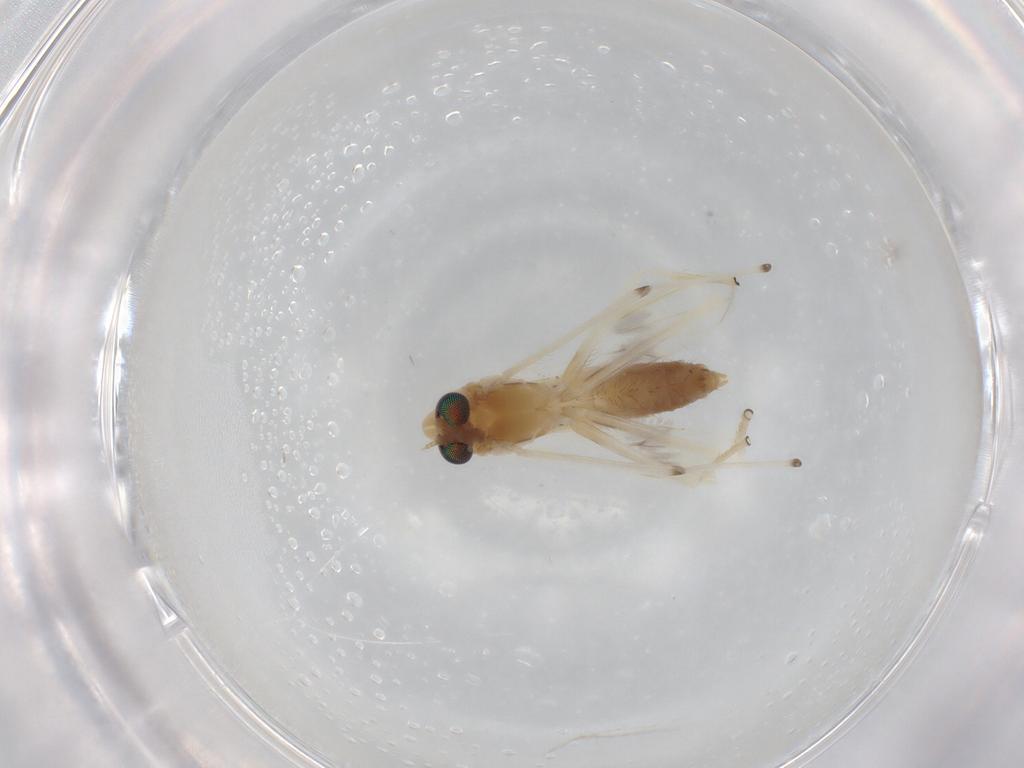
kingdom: Animalia
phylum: Arthropoda
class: Insecta
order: Diptera
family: Chironomidae
